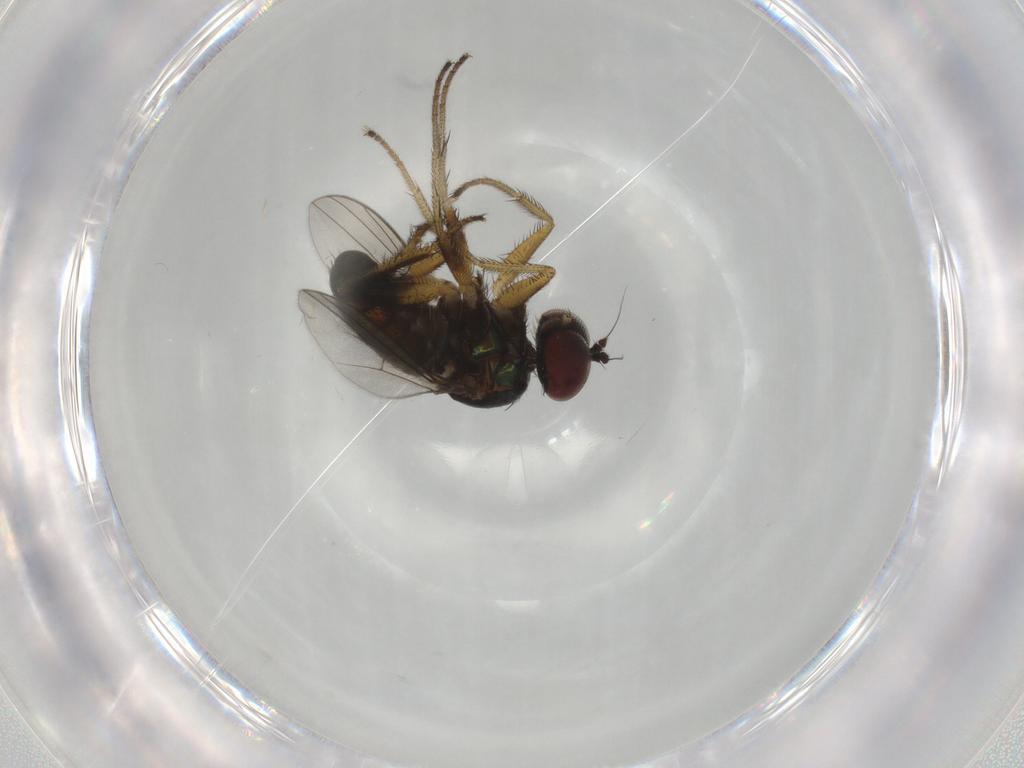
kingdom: Animalia
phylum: Arthropoda
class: Insecta
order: Diptera
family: Dolichopodidae
